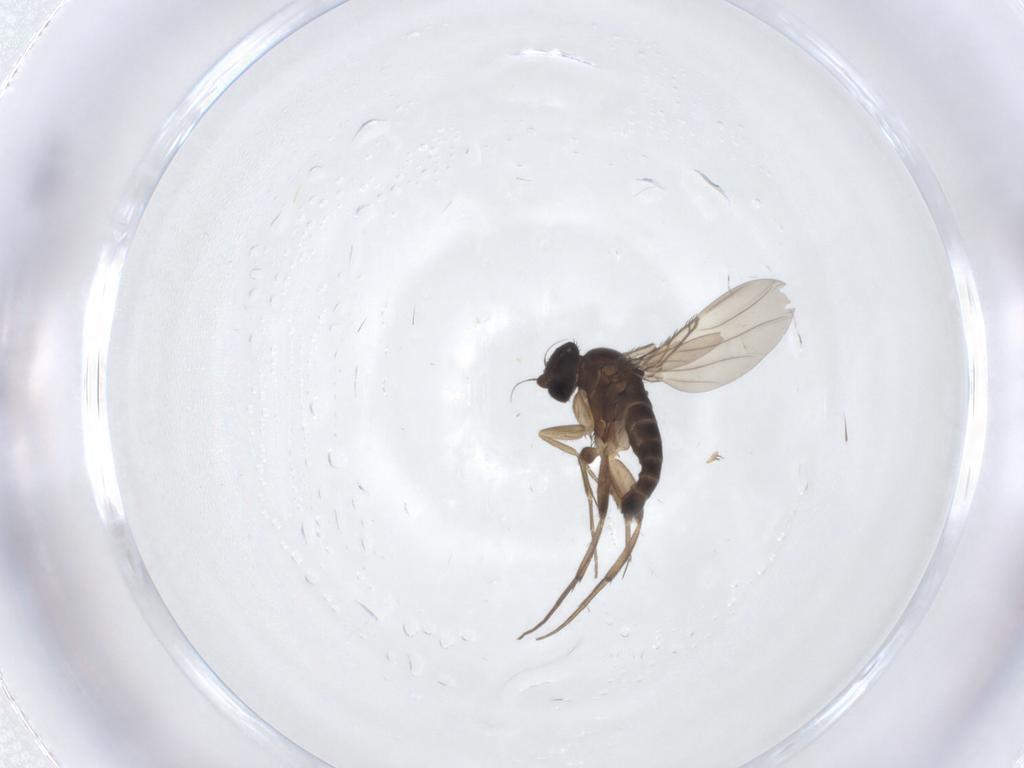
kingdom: Animalia
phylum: Arthropoda
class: Insecta
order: Diptera
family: Phoridae
